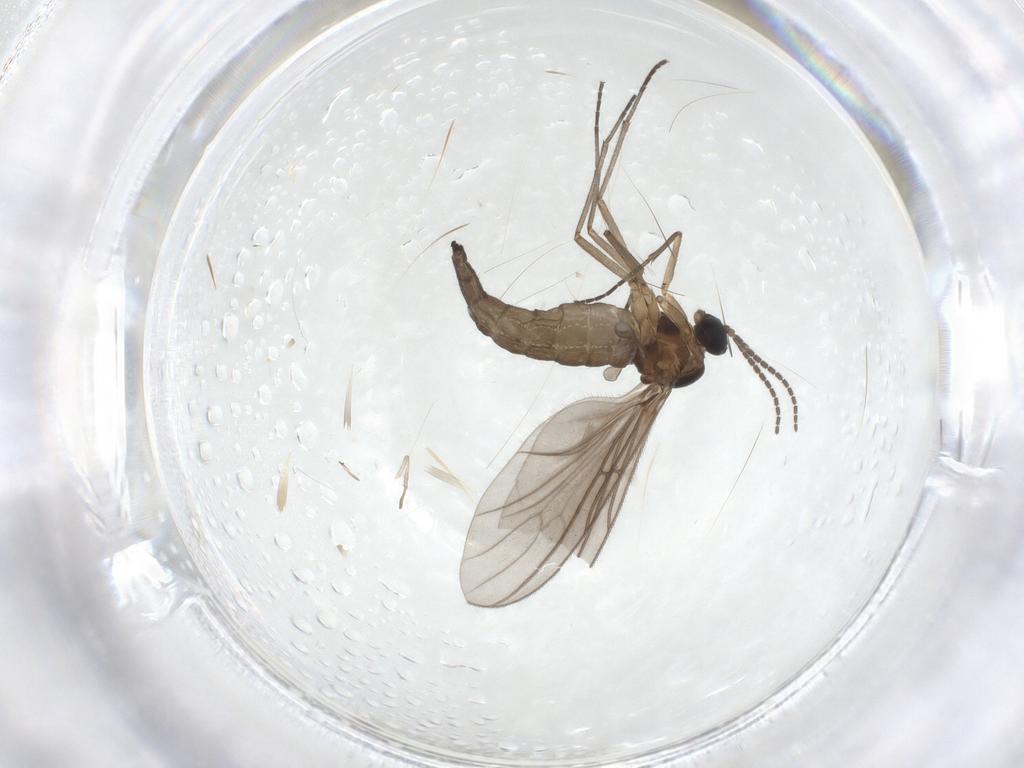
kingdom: Animalia
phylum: Arthropoda
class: Insecta
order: Diptera
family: Sciaridae
